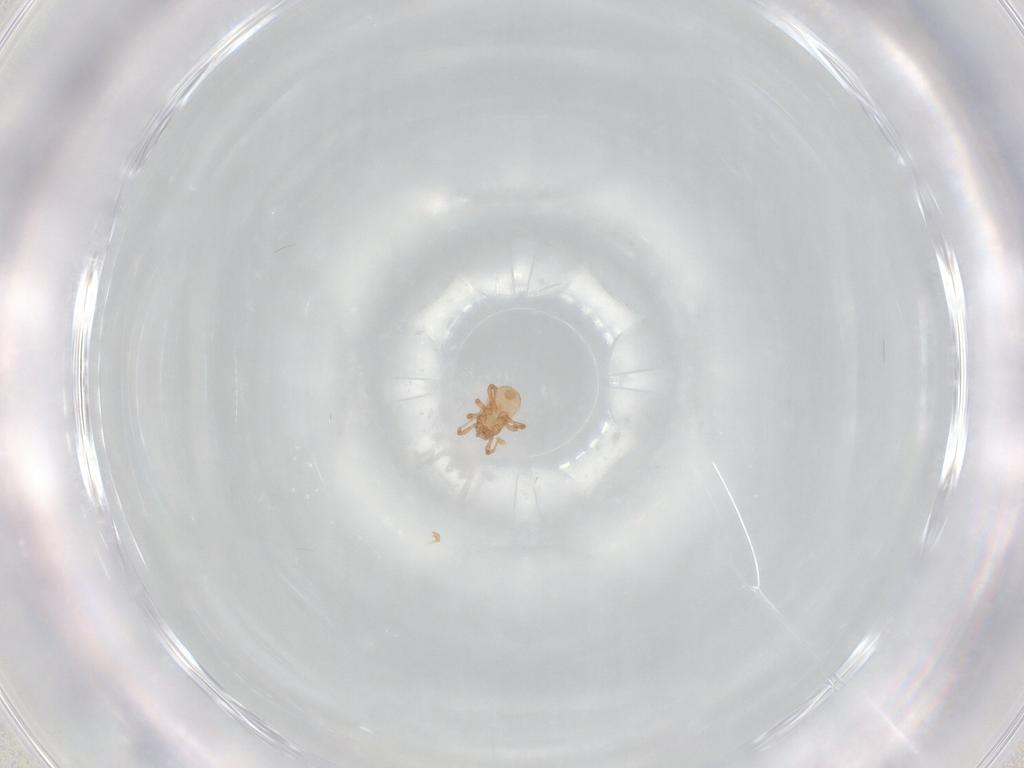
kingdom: Animalia
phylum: Arthropoda
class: Arachnida
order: Mesostigmata
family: Ascidae
